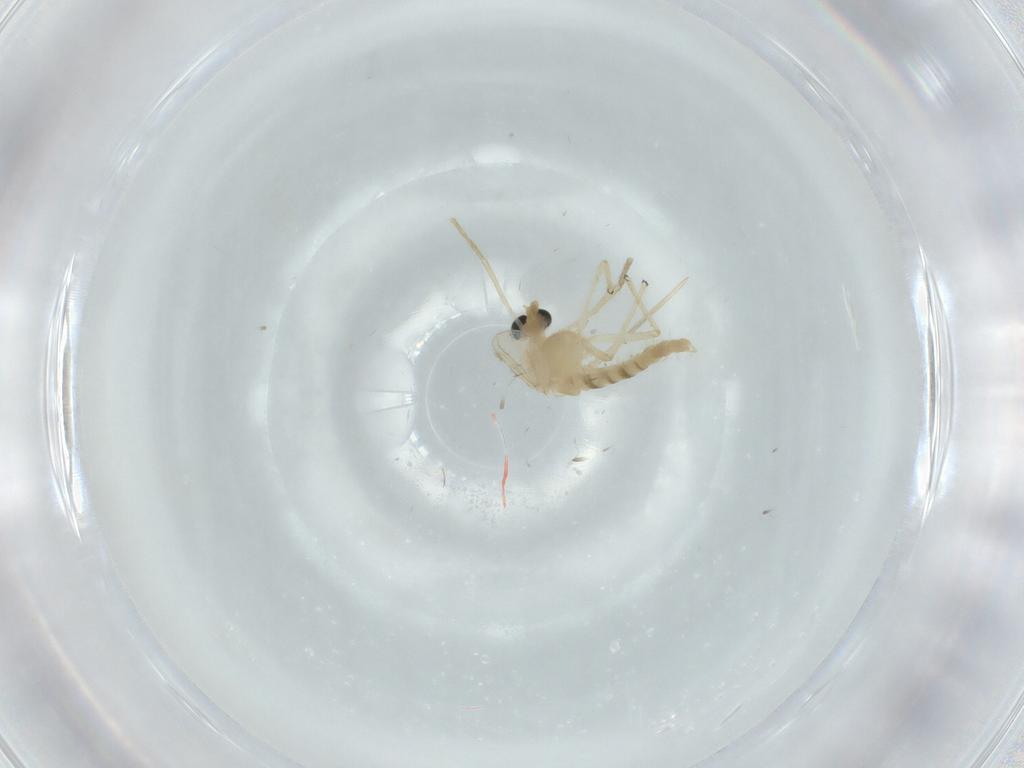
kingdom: Animalia
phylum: Arthropoda
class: Insecta
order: Diptera
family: Chironomidae
